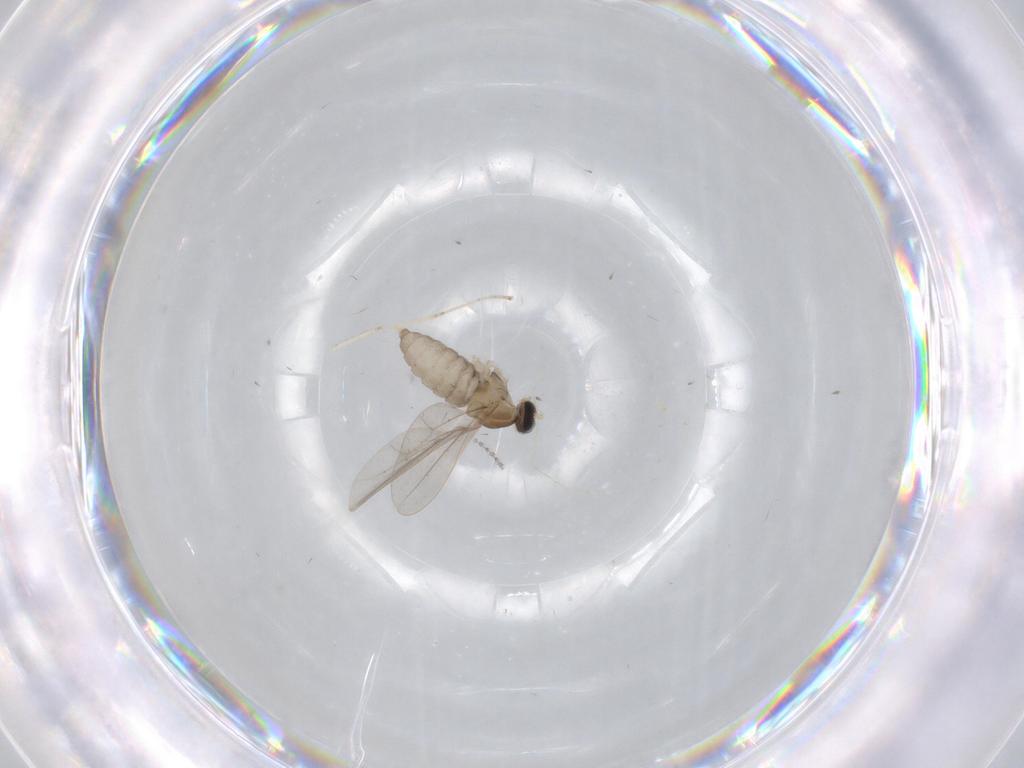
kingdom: Animalia
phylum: Arthropoda
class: Insecta
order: Diptera
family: Cecidomyiidae
